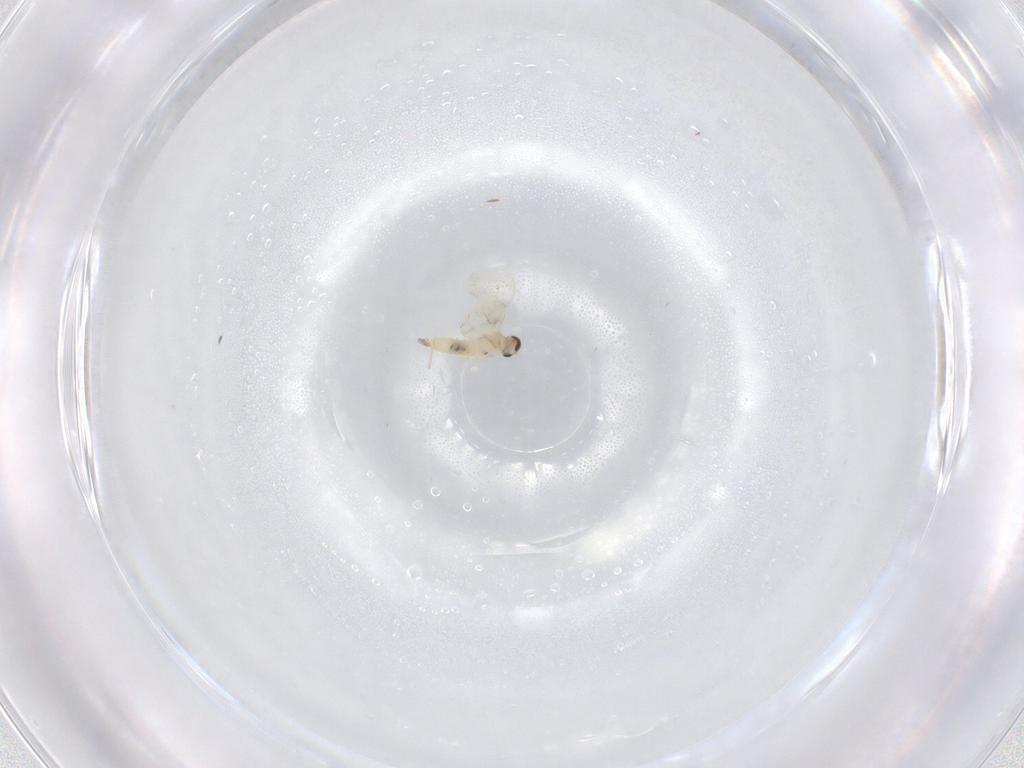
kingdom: Animalia
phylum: Arthropoda
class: Insecta
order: Diptera
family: Cecidomyiidae
